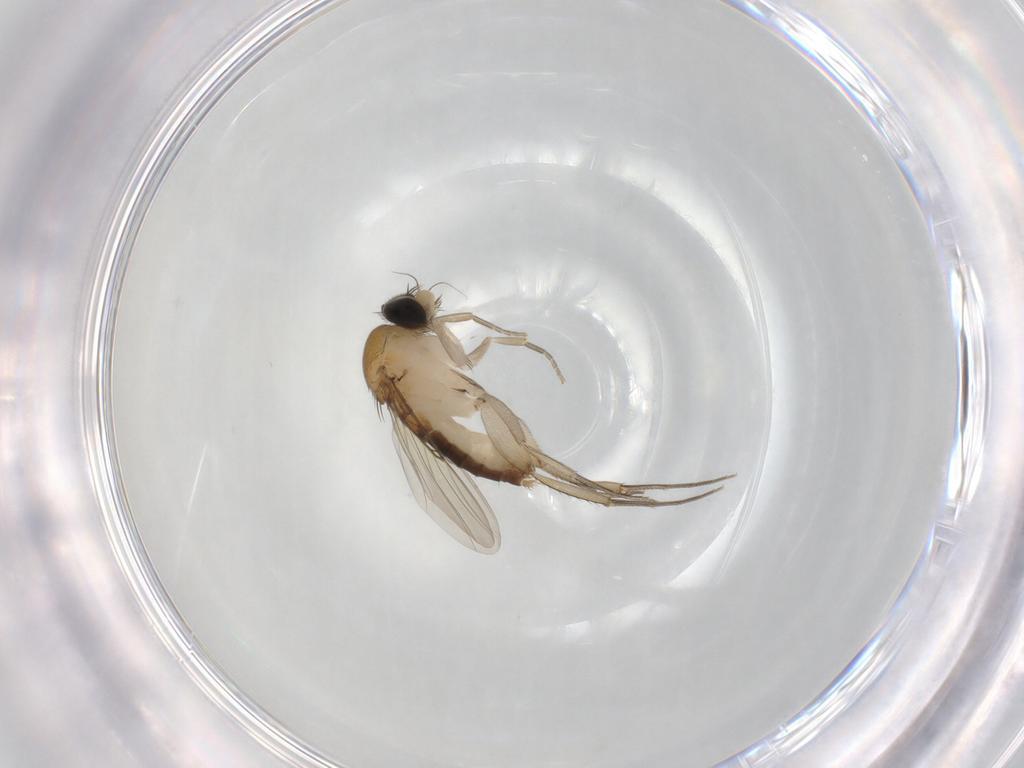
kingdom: Animalia
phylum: Arthropoda
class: Insecta
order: Diptera
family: Phoridae
